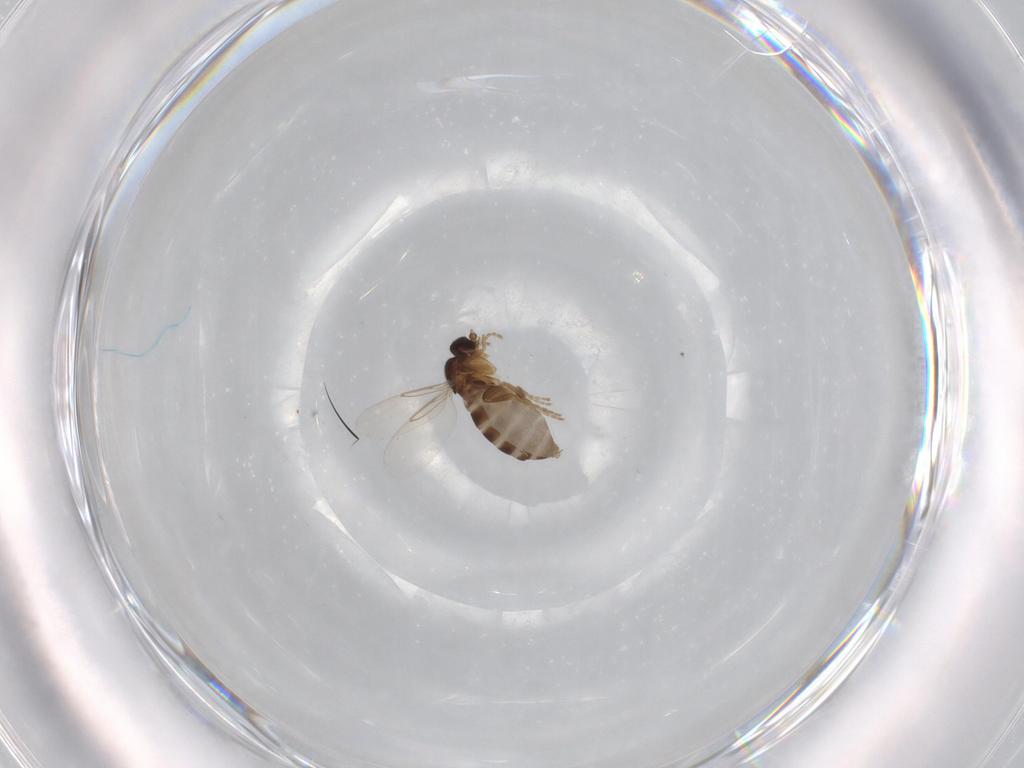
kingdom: Animalia
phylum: Arthropoda
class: Insecta
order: Diptera
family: Phoridae
